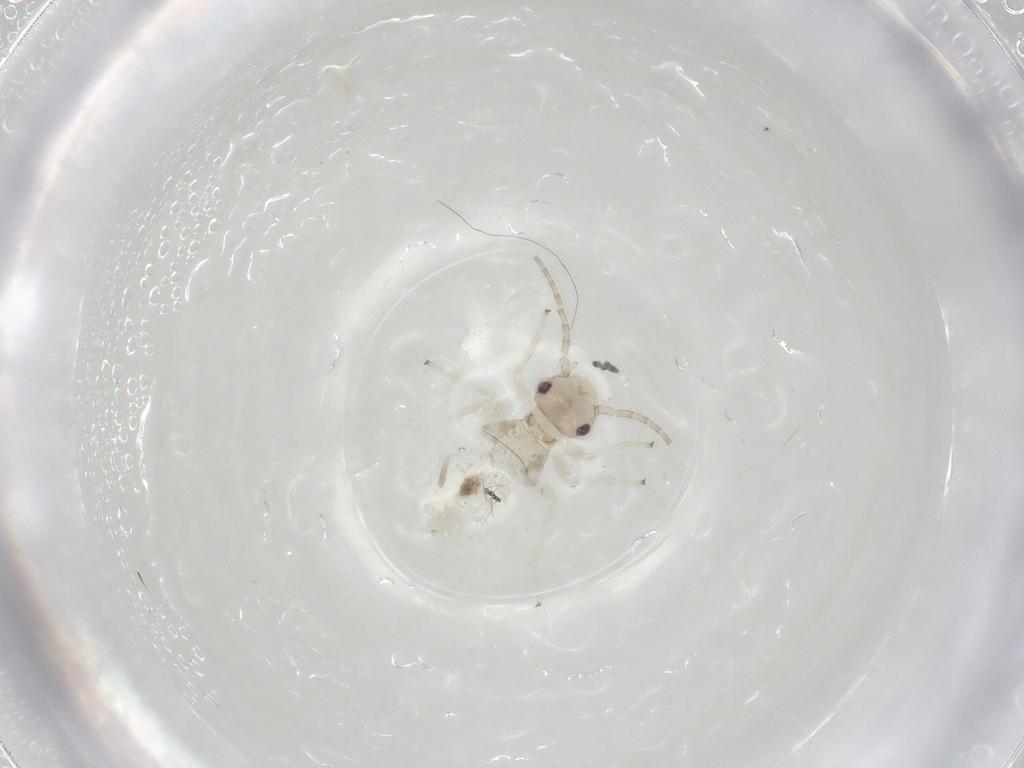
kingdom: Animalia
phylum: Arthropoda
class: Insecta
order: Psocodea
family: Amphipsocidae
